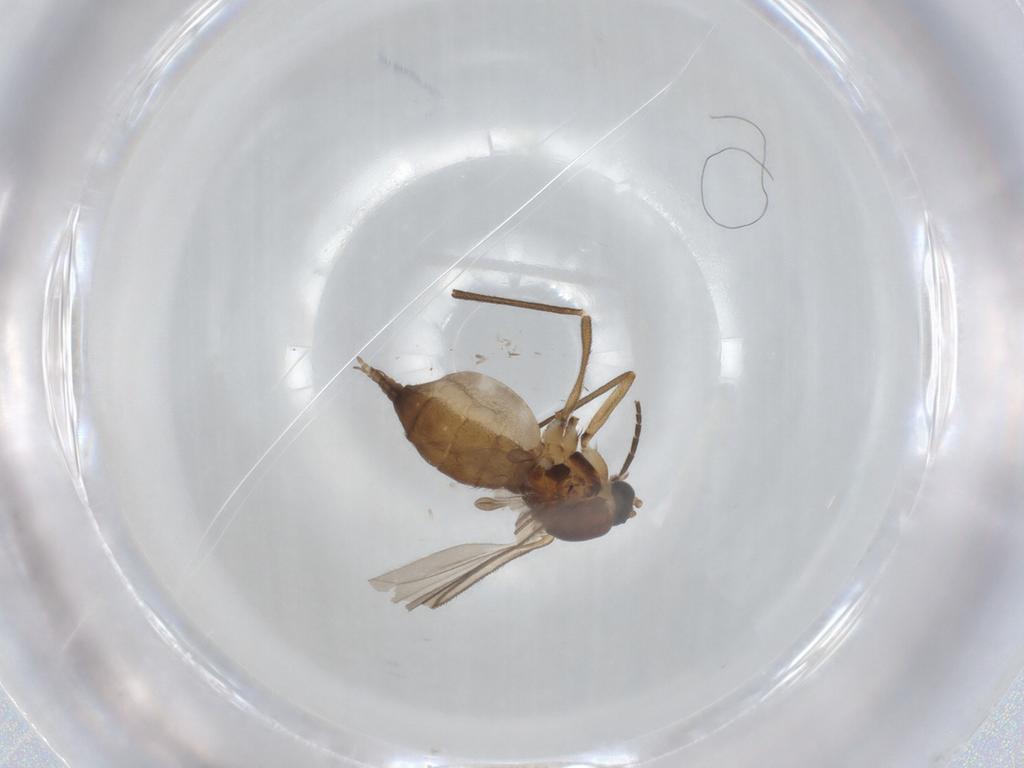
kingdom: Animalia
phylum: Arthropoda
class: Insecta
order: Diptera
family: Sciaridae
